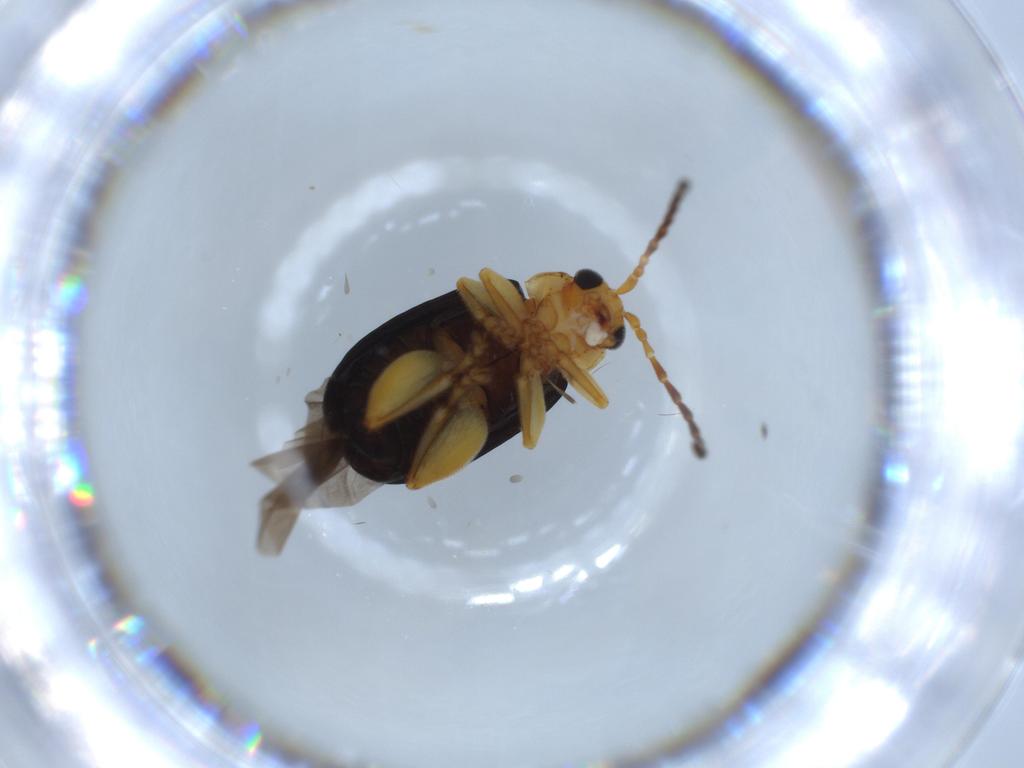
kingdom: Animalia
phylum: Arthropoda
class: Insecta
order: Coleoptera
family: Chrysomelidae
